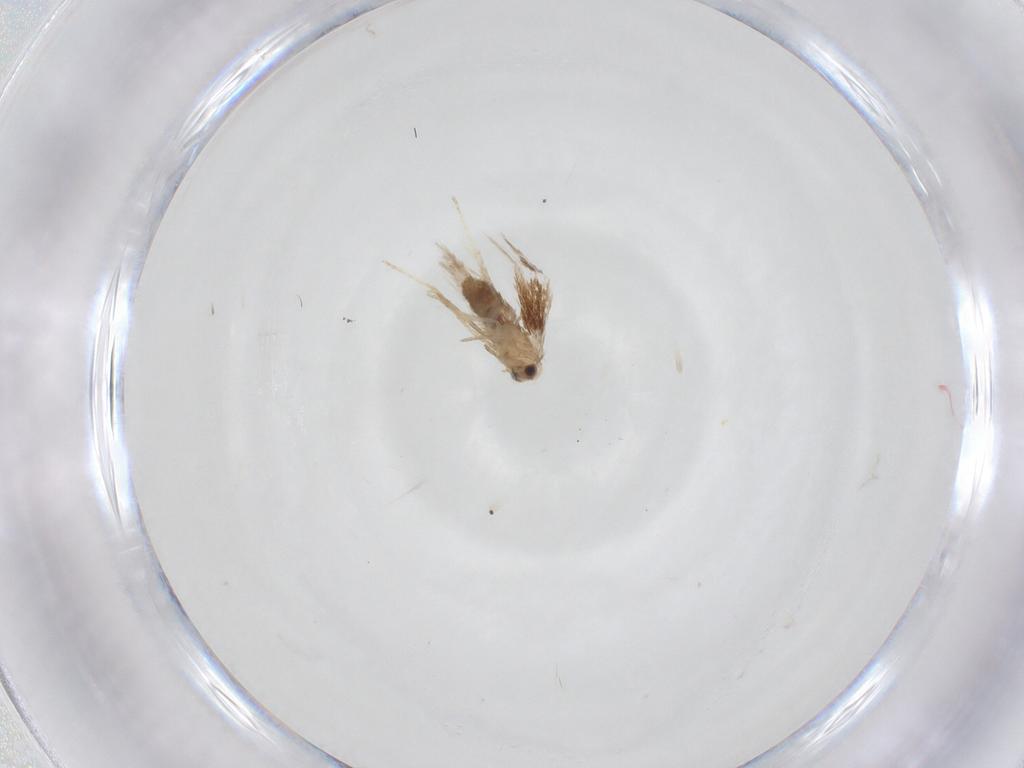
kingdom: Animalia
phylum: Arthropoda
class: Insecta
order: Lepidoptera
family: Nepticulidae
